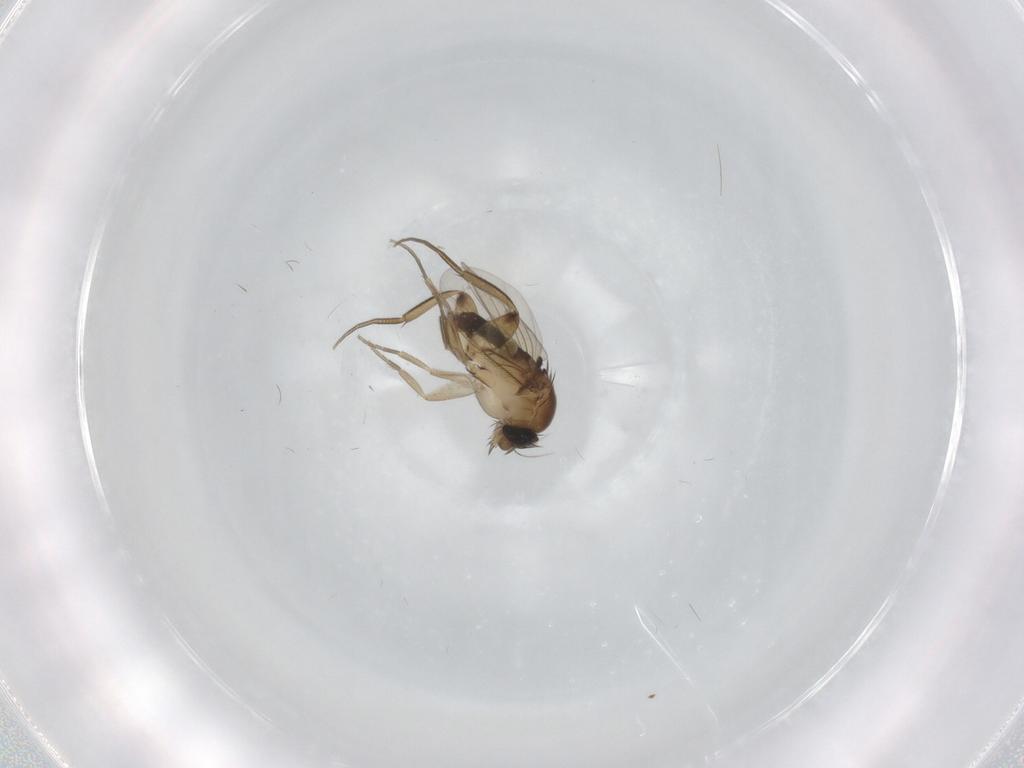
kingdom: Animalia
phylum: Arthropoda
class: Insecta
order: Diptera
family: Phoridae
